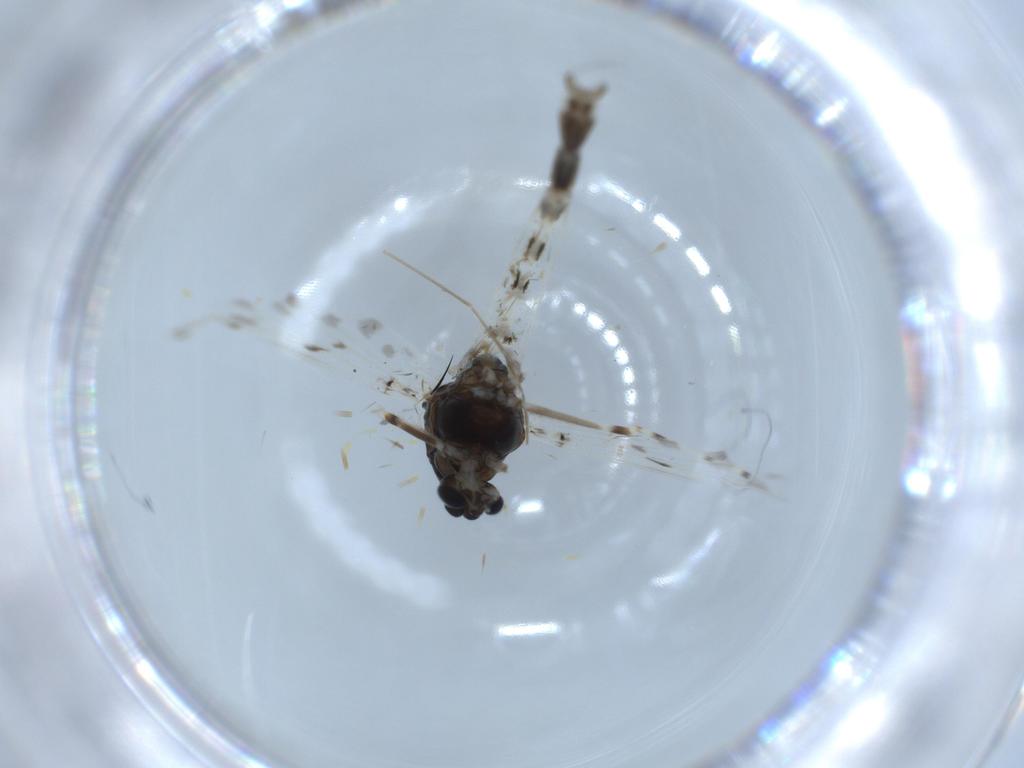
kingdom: Animalia
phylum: Arthropoda
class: Insecta
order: Diptera
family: Chironomidae
